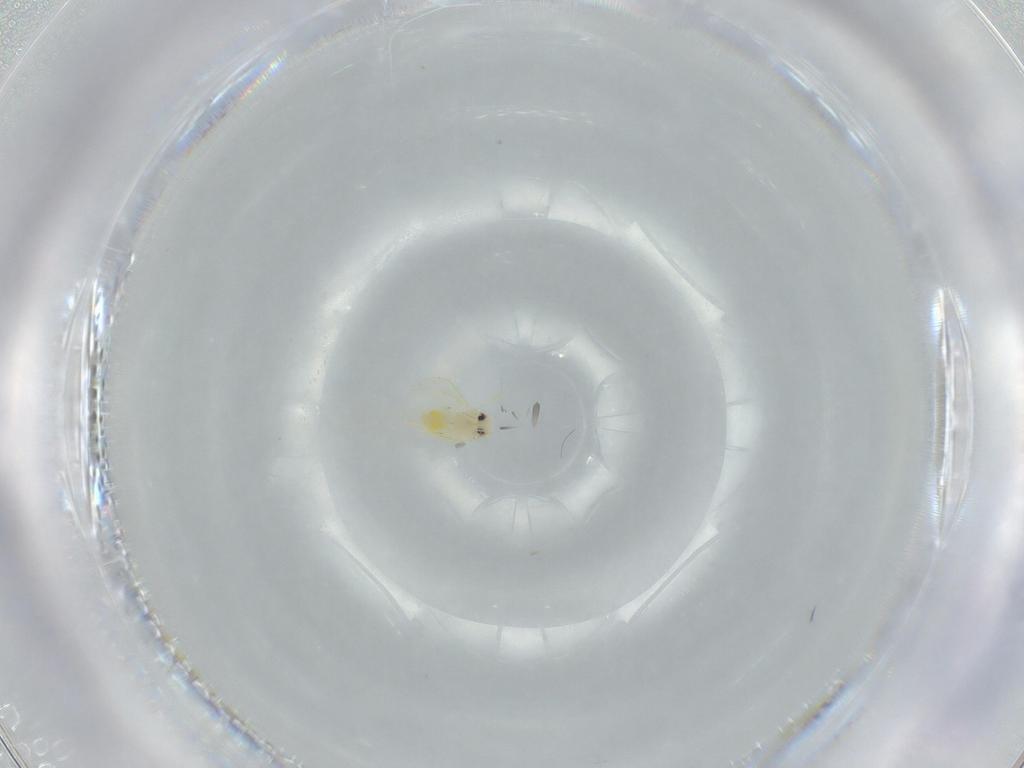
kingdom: Animalia
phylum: Arthropoda
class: Insecta
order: Hemiptera
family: Aleyrodidae
